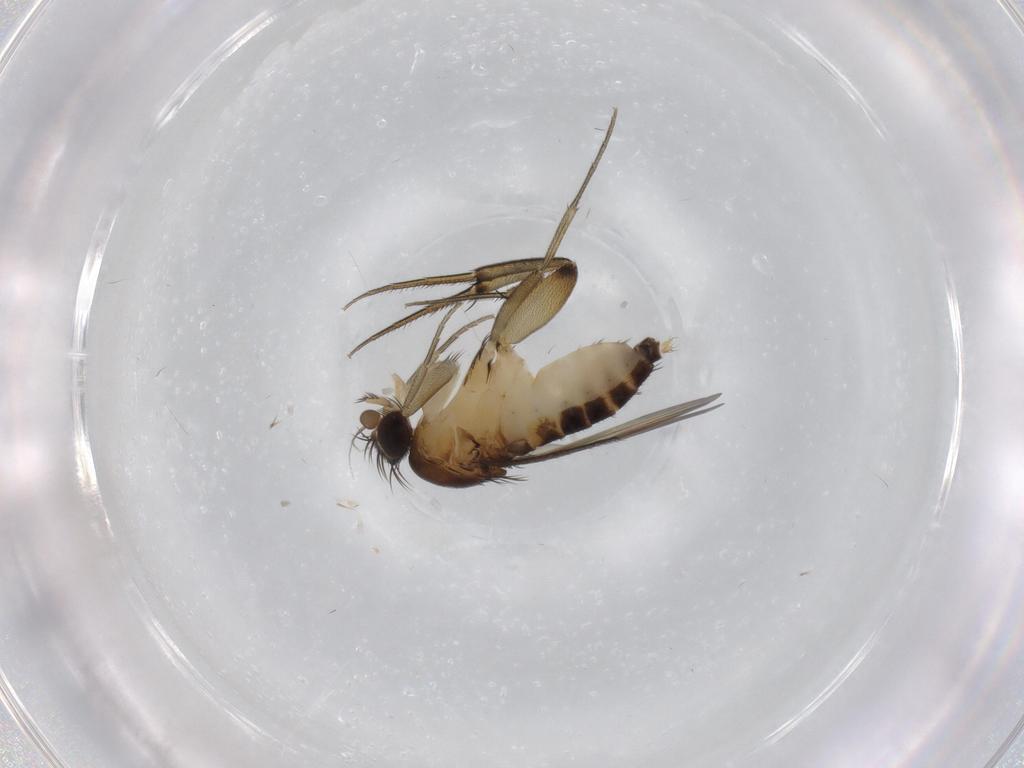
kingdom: Animalia
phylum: Arthropoda
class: Insecta
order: Diptera
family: Phoridae
